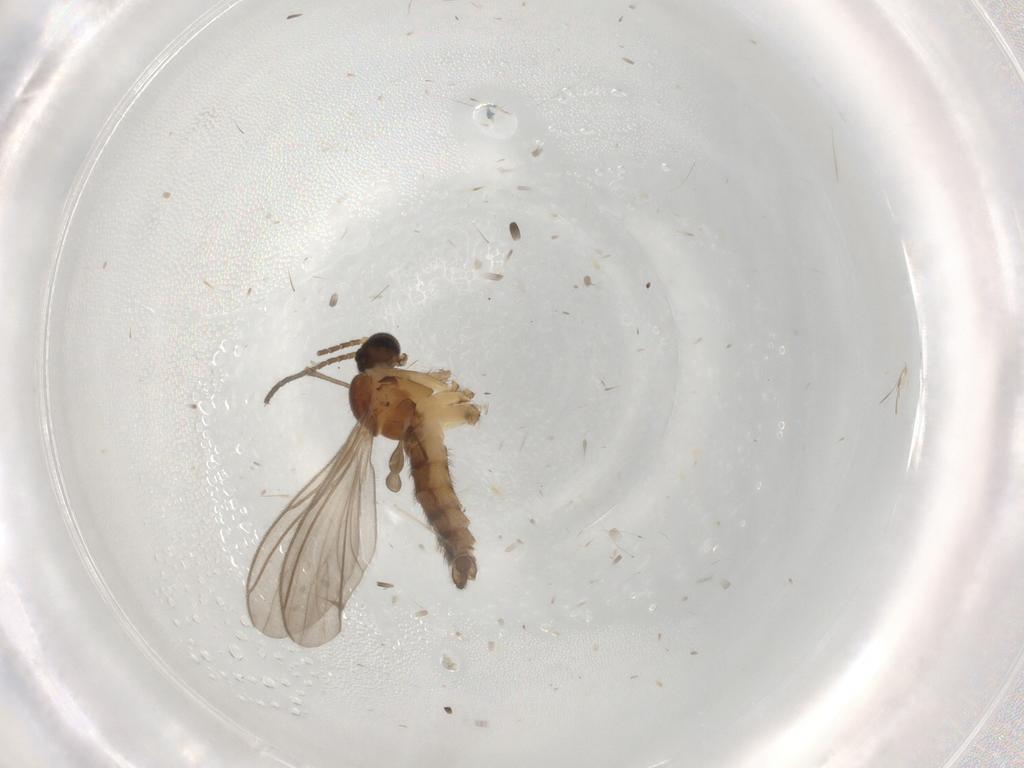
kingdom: Animalia
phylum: Arthropoda
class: Insecta
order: Diptera
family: Sciaridae
